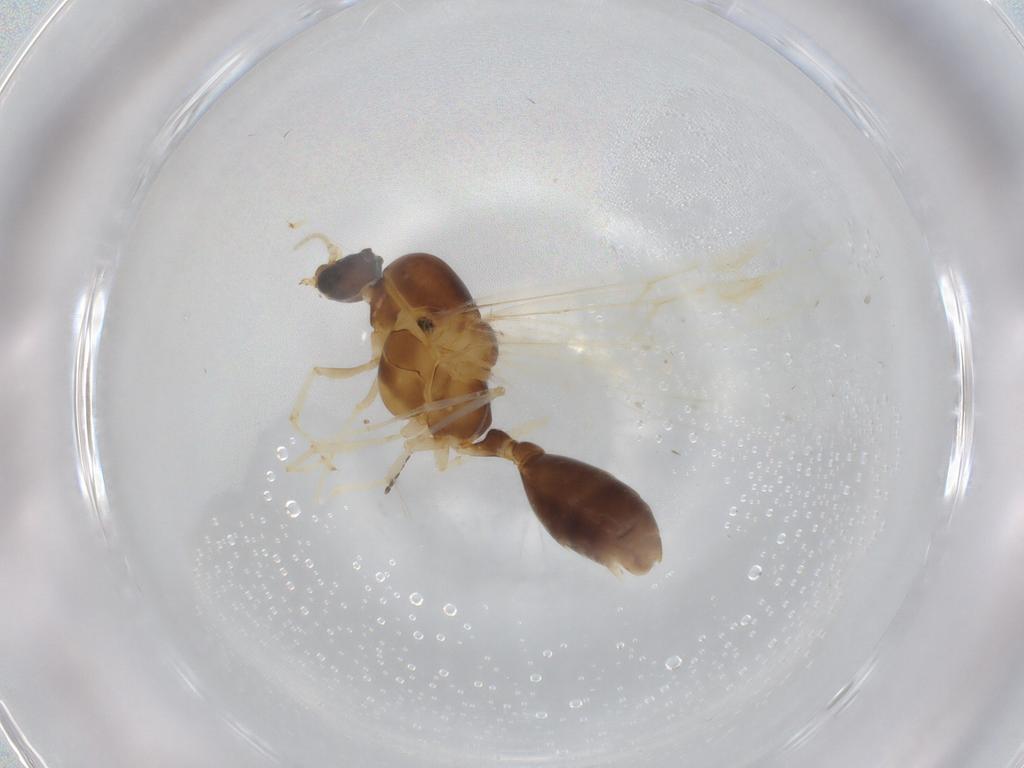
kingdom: Animalia
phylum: Arthropoda
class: Insecta
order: Hymenoptera
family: Formicidae
